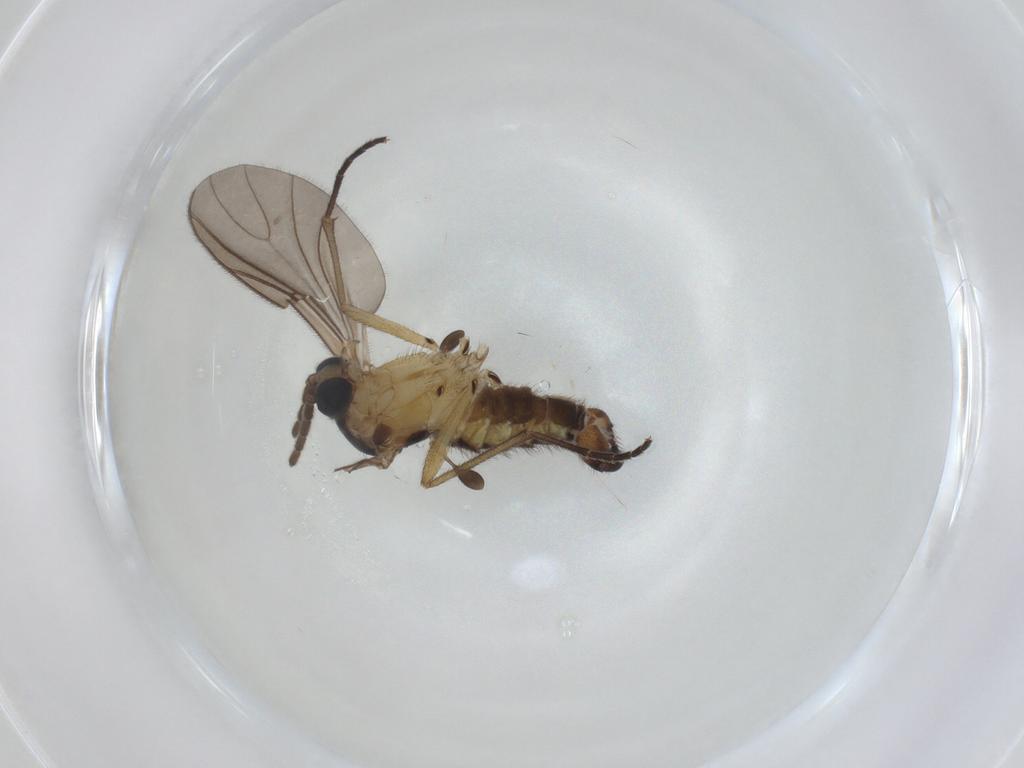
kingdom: Animalia
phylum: Arthropoda
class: Insecta
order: Diptera
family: Sciaridae
